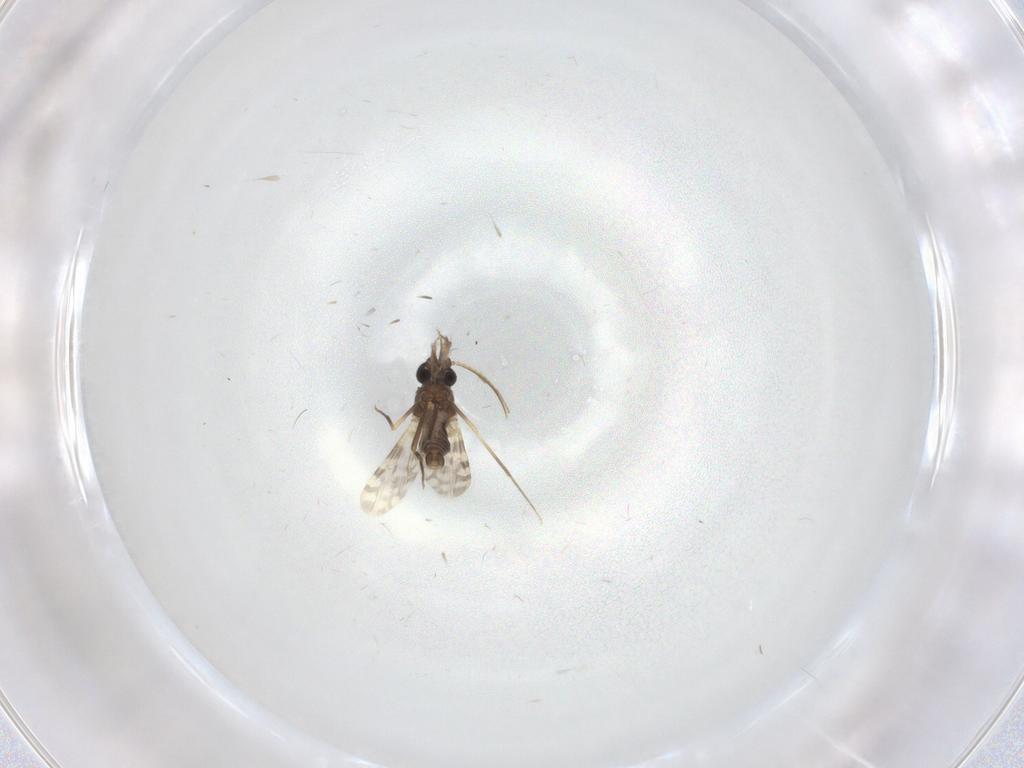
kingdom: Animalia
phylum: Arthropoda
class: Insecta
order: Diptera
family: Ceratopogonidae
